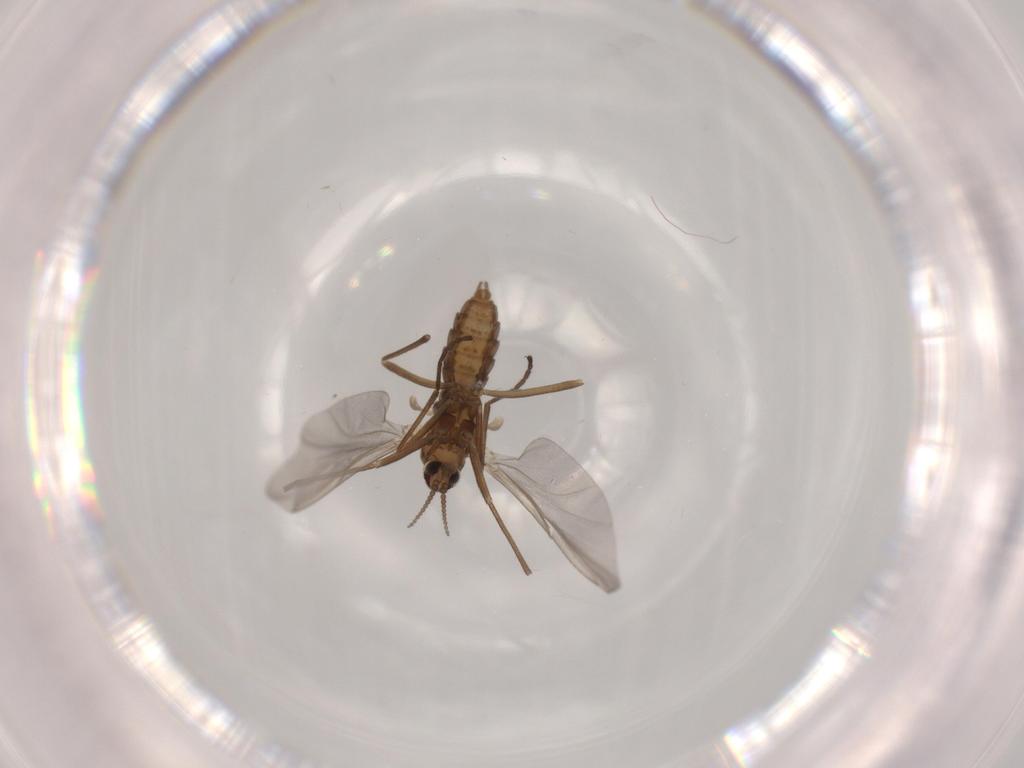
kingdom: Animalia
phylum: Arthropoda
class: Insecta
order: Diptera
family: Cecidomyiidae
